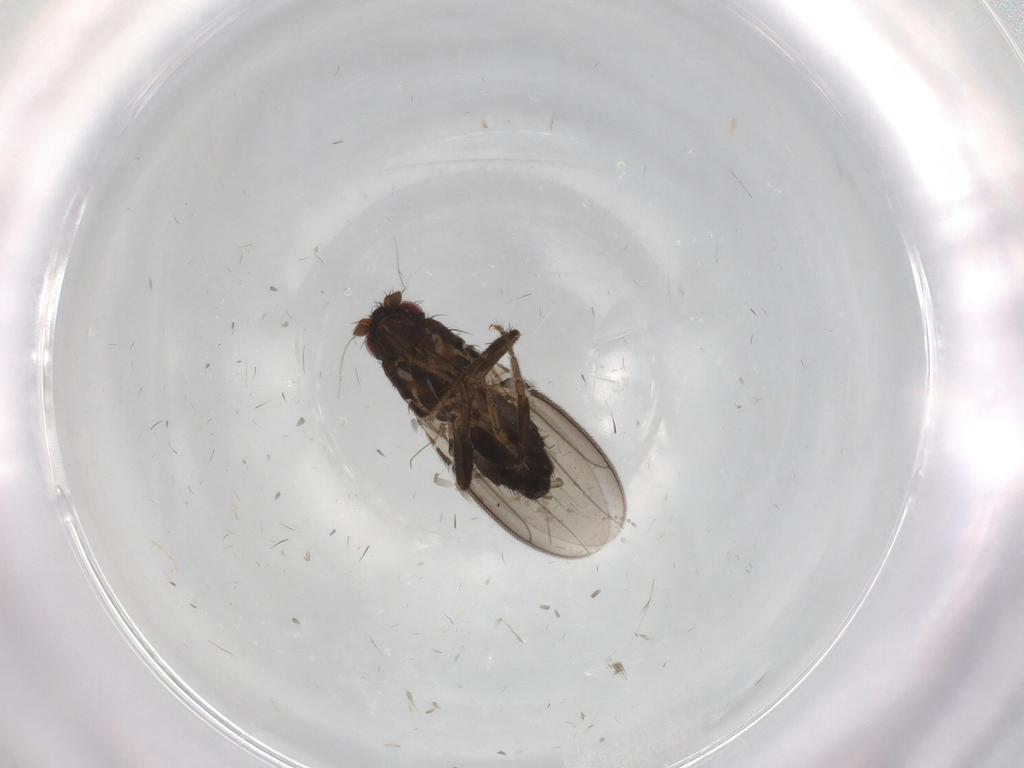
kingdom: Animalia
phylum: Arthropoda
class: Insecta
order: Diptera
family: Sphaeroceridae
